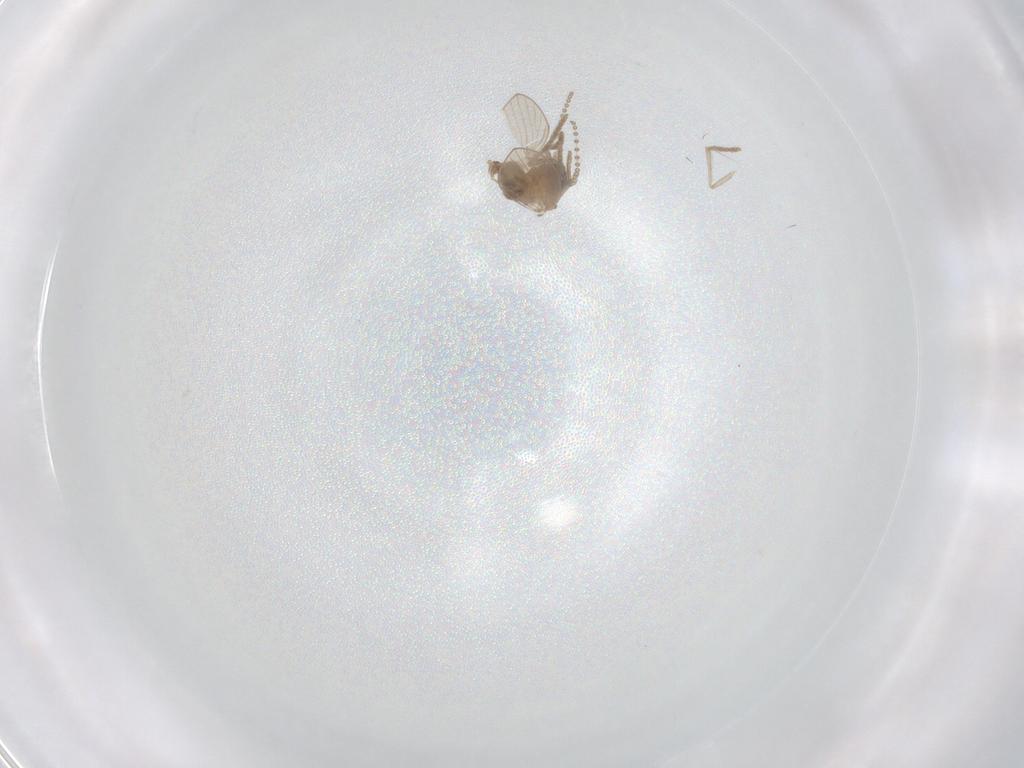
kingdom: Animalia
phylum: Arthropoda
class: Insecta
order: Diptera
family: Psychodidae
